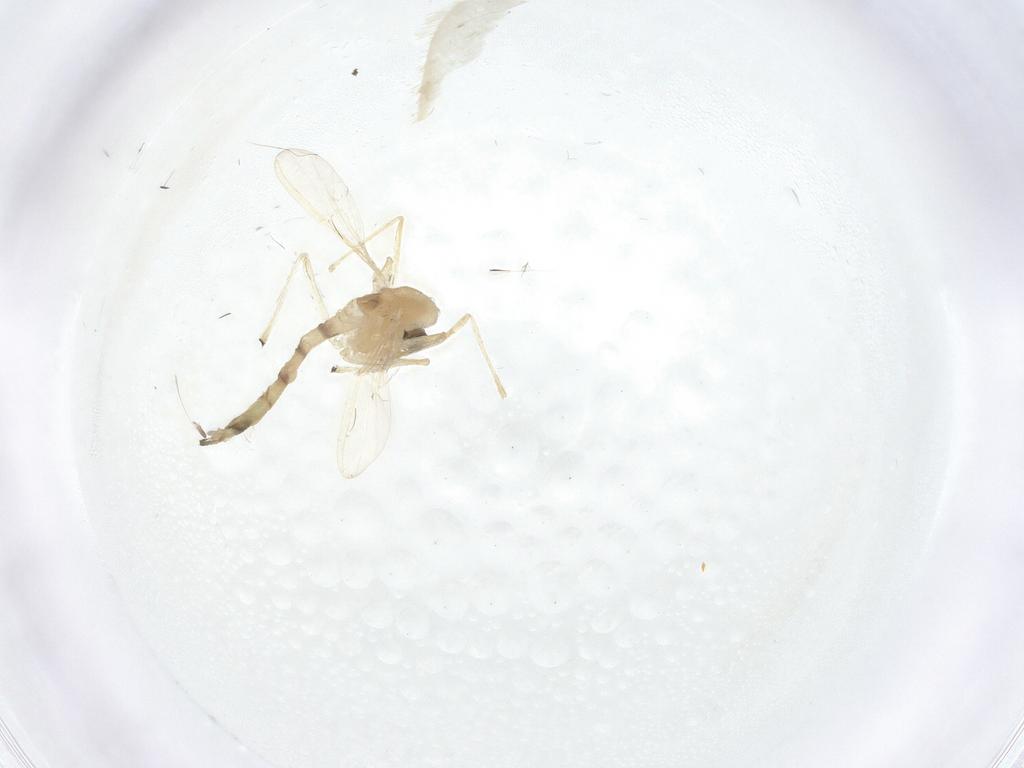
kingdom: Animalia
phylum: Arthropoda
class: Insecta
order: Diptera
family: Chironomidae
